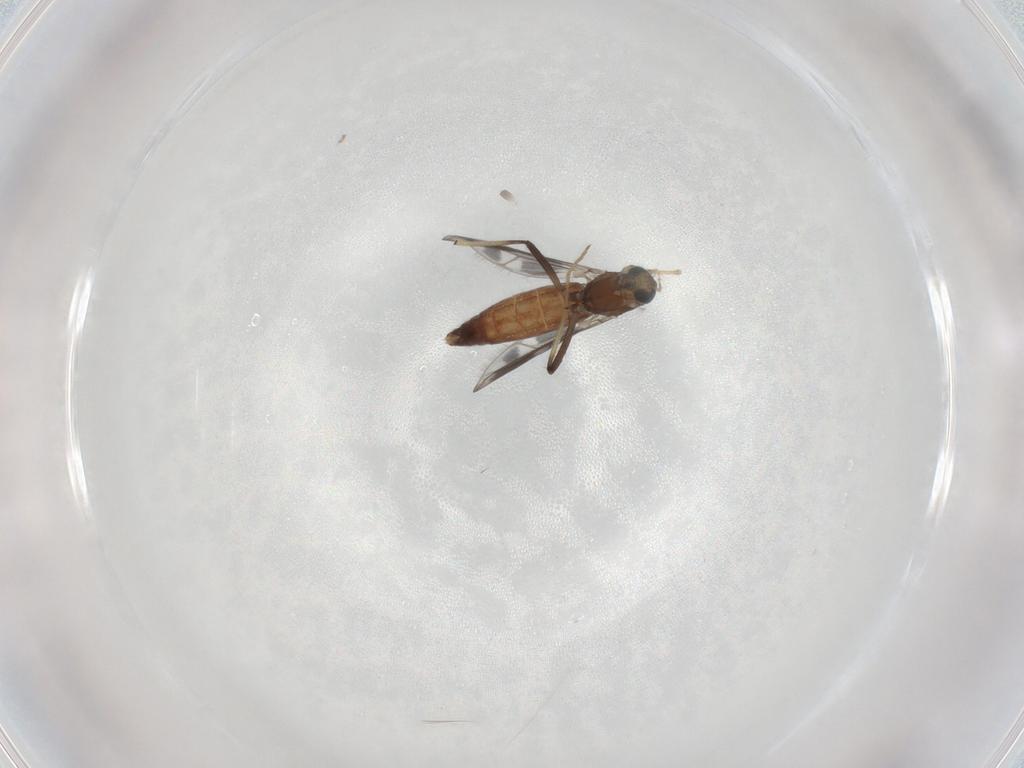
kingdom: Animalia
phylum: Arthropoda
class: Insecta
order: Diptera
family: Chironomidae
